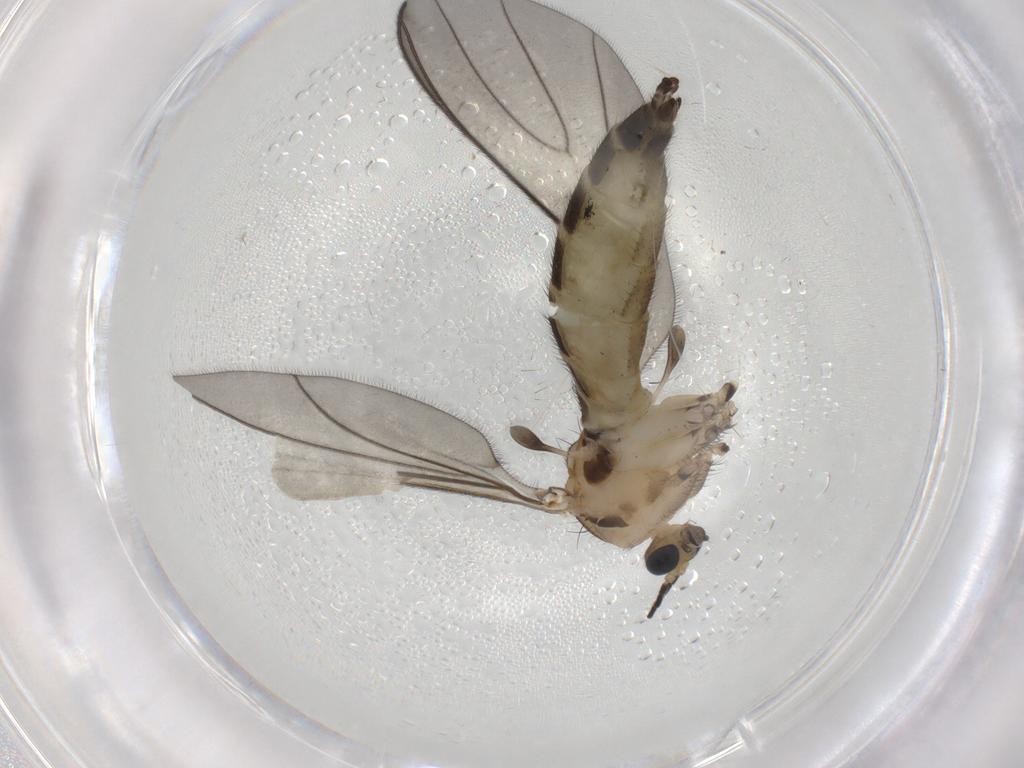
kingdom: Animalia
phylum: Arthropoda
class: Insecta
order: Diptera
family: Sciaridae
